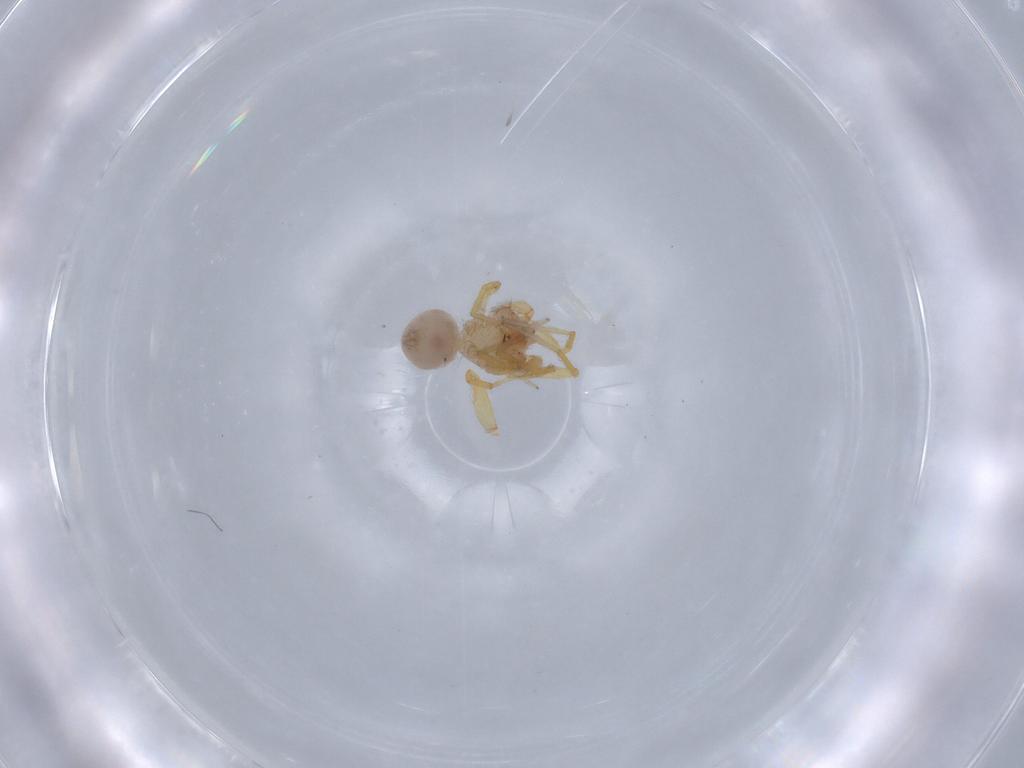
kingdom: Animalia
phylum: Arthropoda
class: Arachnida
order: Araneae
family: Oonopidae
